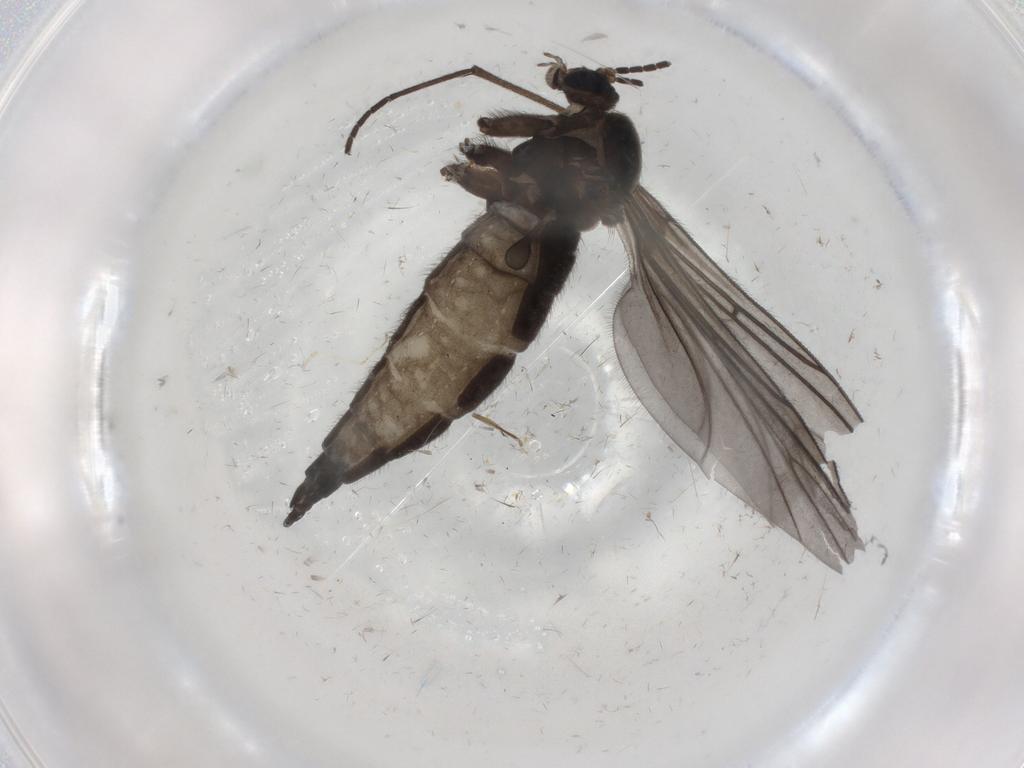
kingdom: Animalia
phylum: Arthropoda
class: Insecta
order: Diptera
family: Sciaridae
